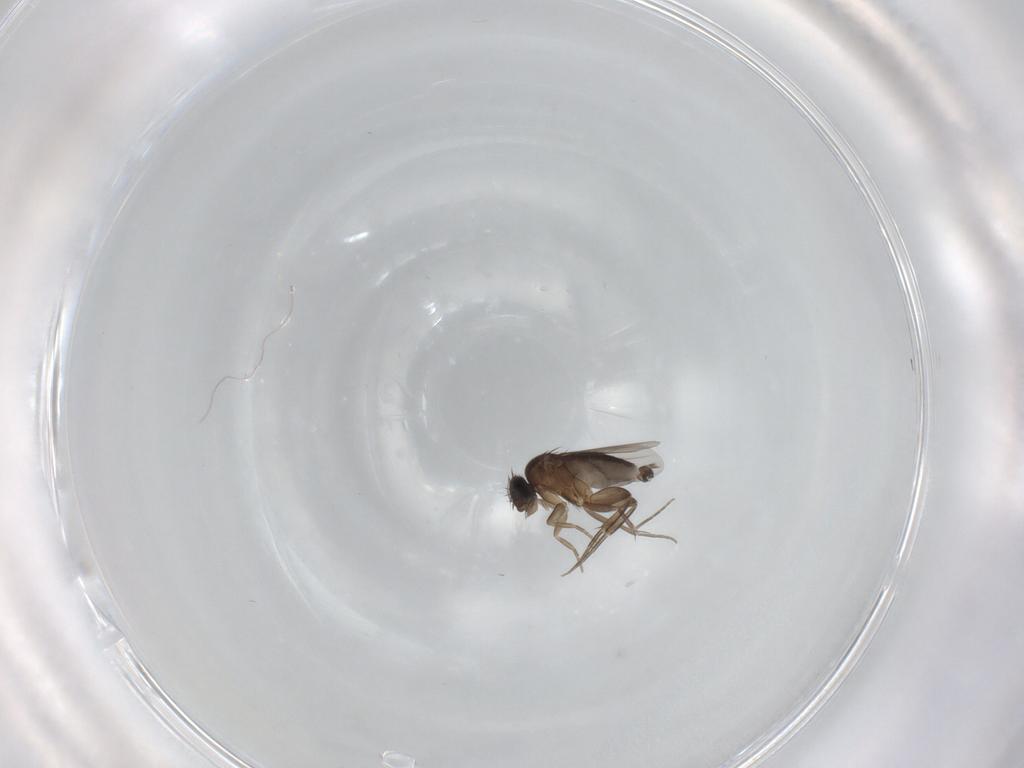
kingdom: Animalia
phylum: Arthropoda
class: Insecta
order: Diptera
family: Phoridae
